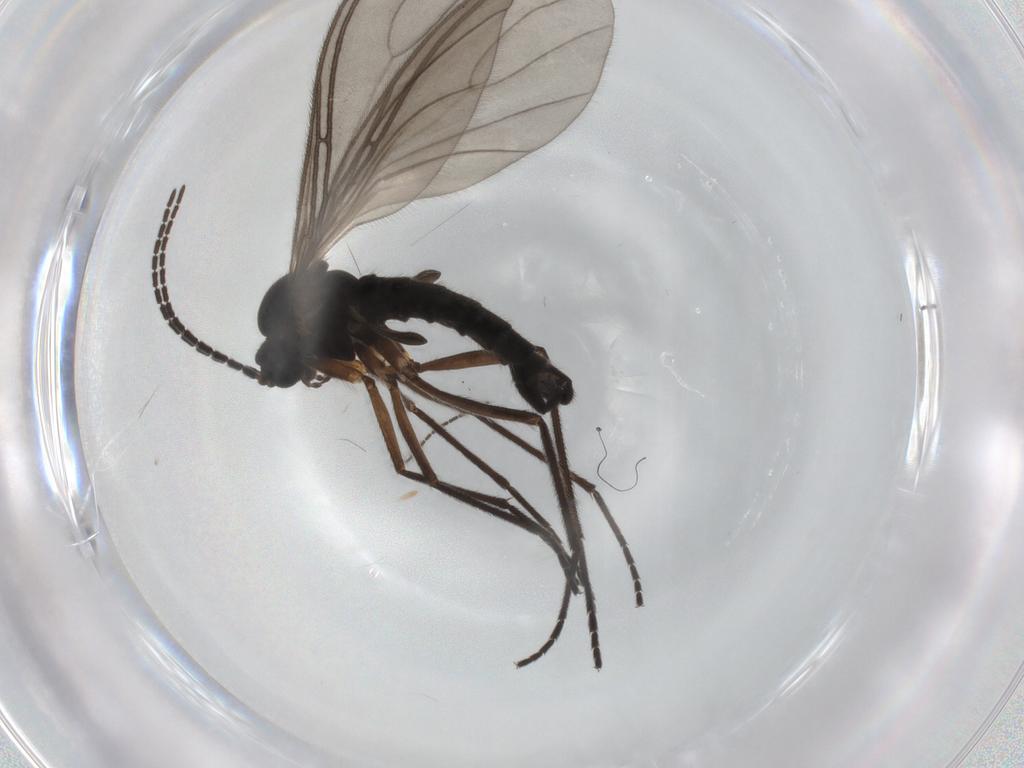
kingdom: Animalia
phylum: Arthropoda
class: Insecta
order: Diptera
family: Sciaridae
